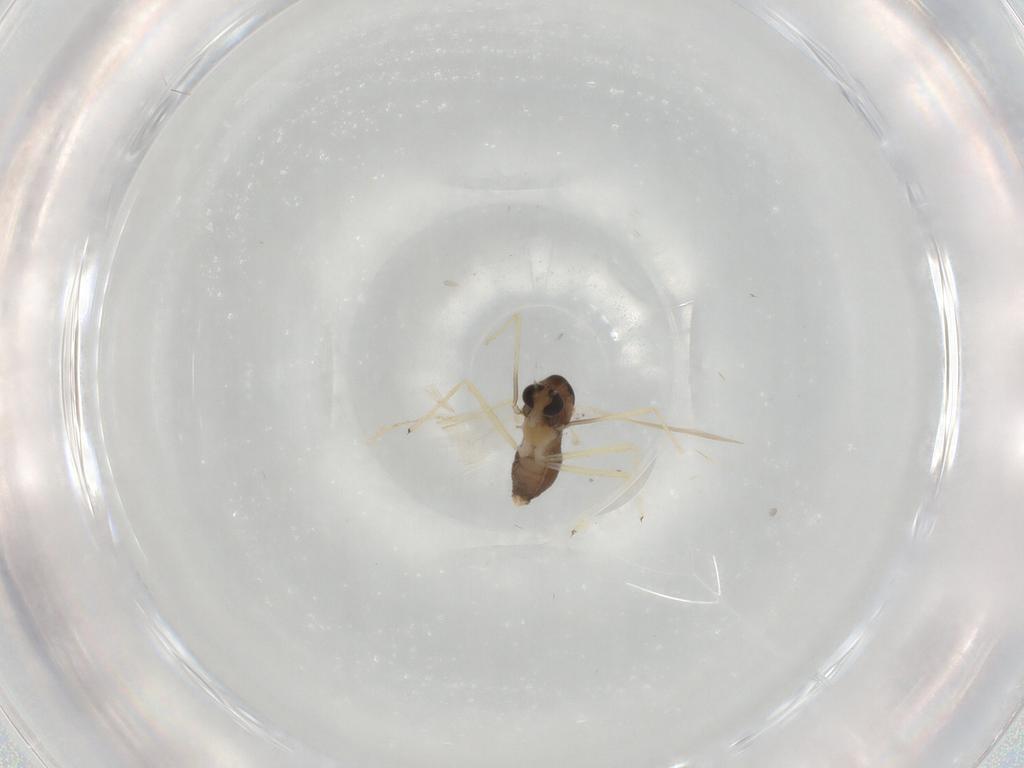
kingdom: Animalia
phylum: Arthropoda
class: Insecta
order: Diptera
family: Chironomidae
